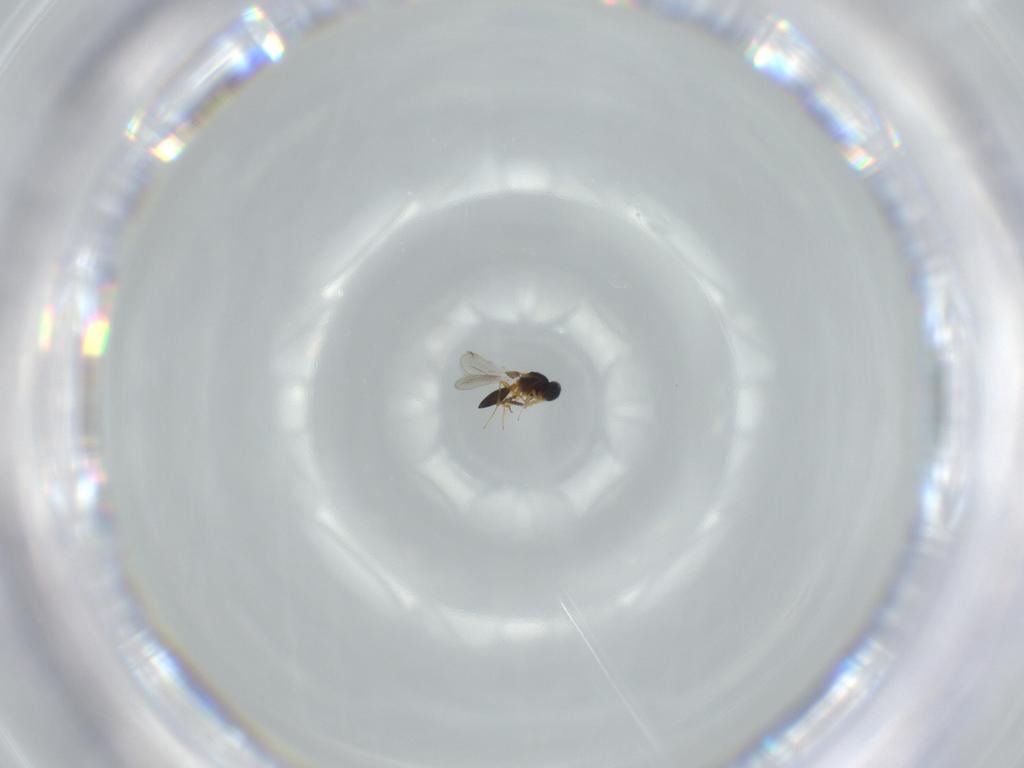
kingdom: Animalia
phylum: Arthropoda
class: Insecta
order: Hymenoptera
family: Platygastridae
